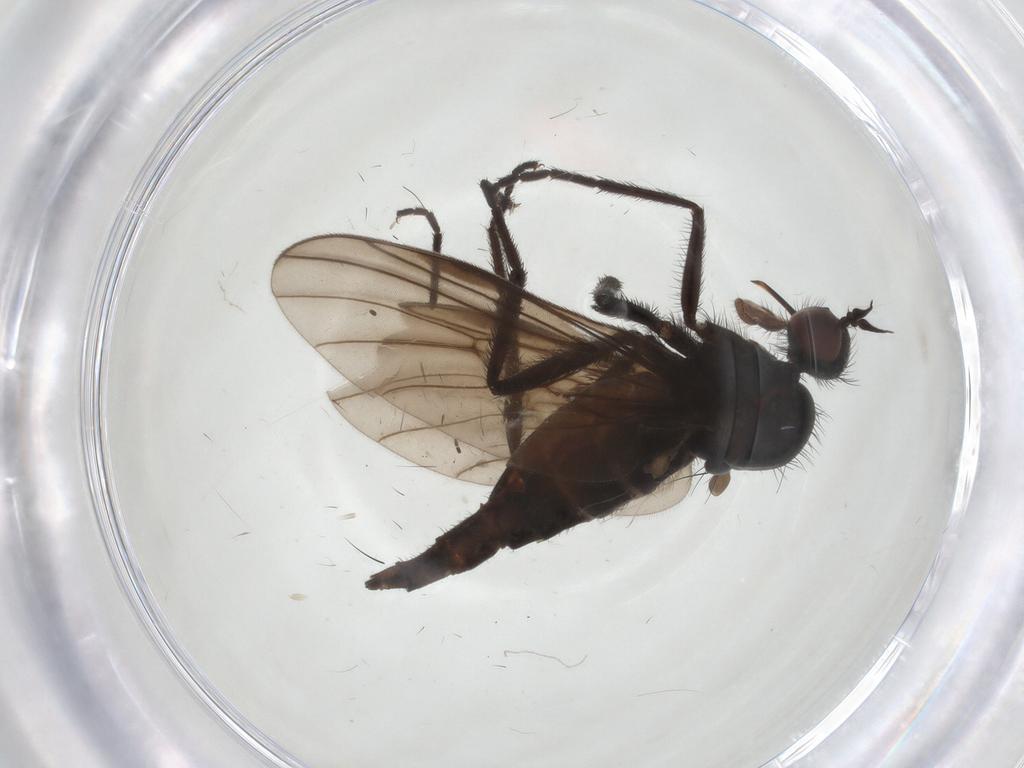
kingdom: Animalia
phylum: Arthropoda
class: Insecta
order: Diptera
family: Empididae
